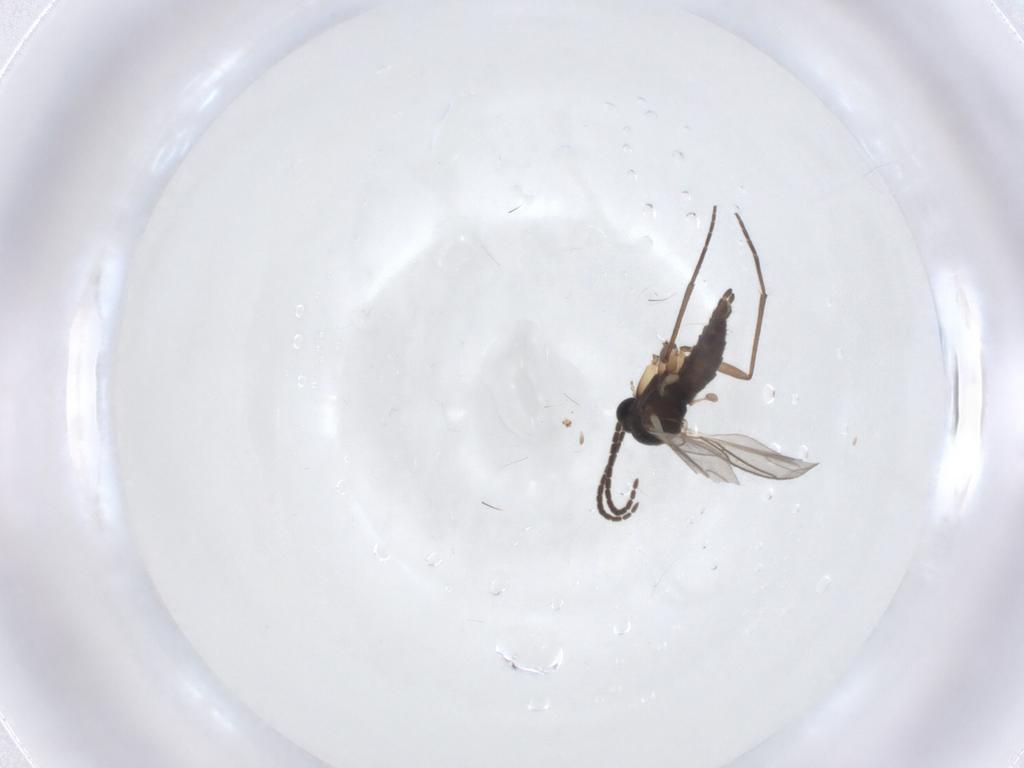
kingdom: Animalia
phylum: Arthropoda
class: Insecta
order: Diptera
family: Sciaridae
